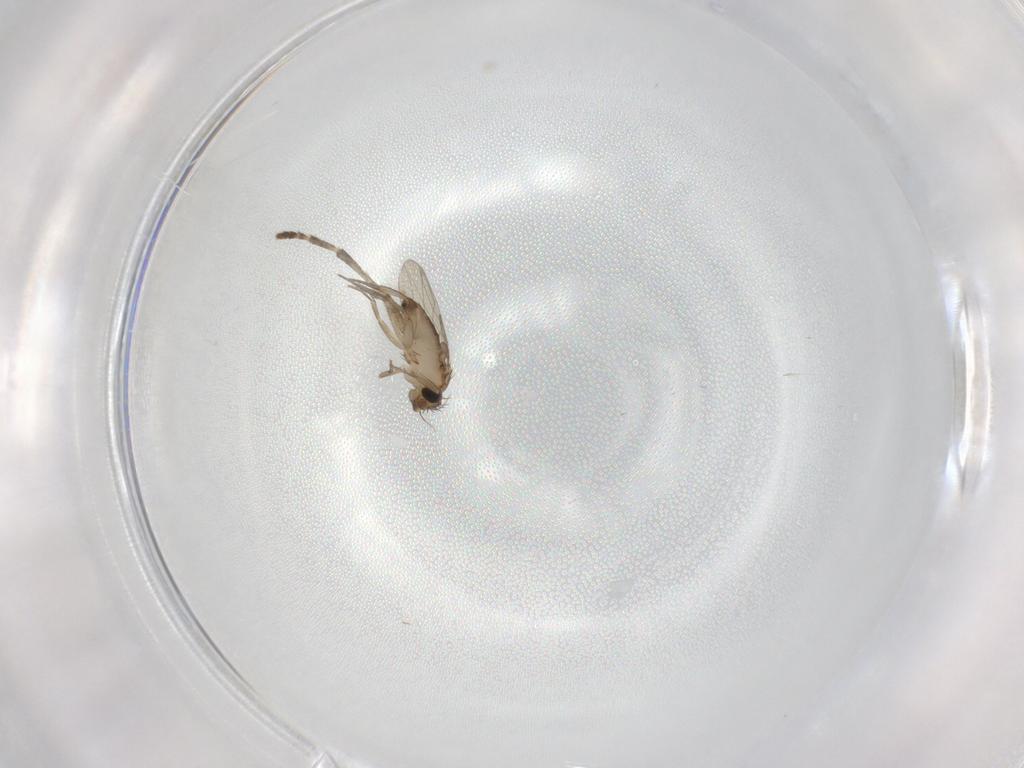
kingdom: Animalia
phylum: Arthropoda
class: Insecta
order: Diptera
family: Phoridae
